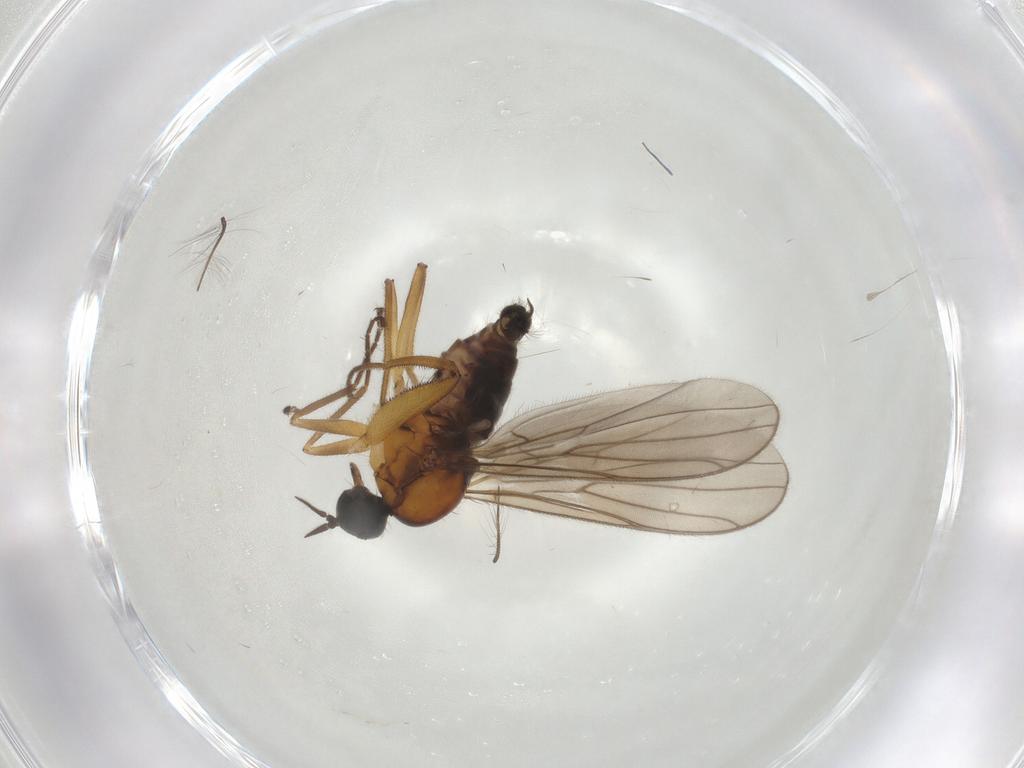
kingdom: Animalia
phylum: Arthropoda
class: Insecta
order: Diptera
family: Hybotidae
